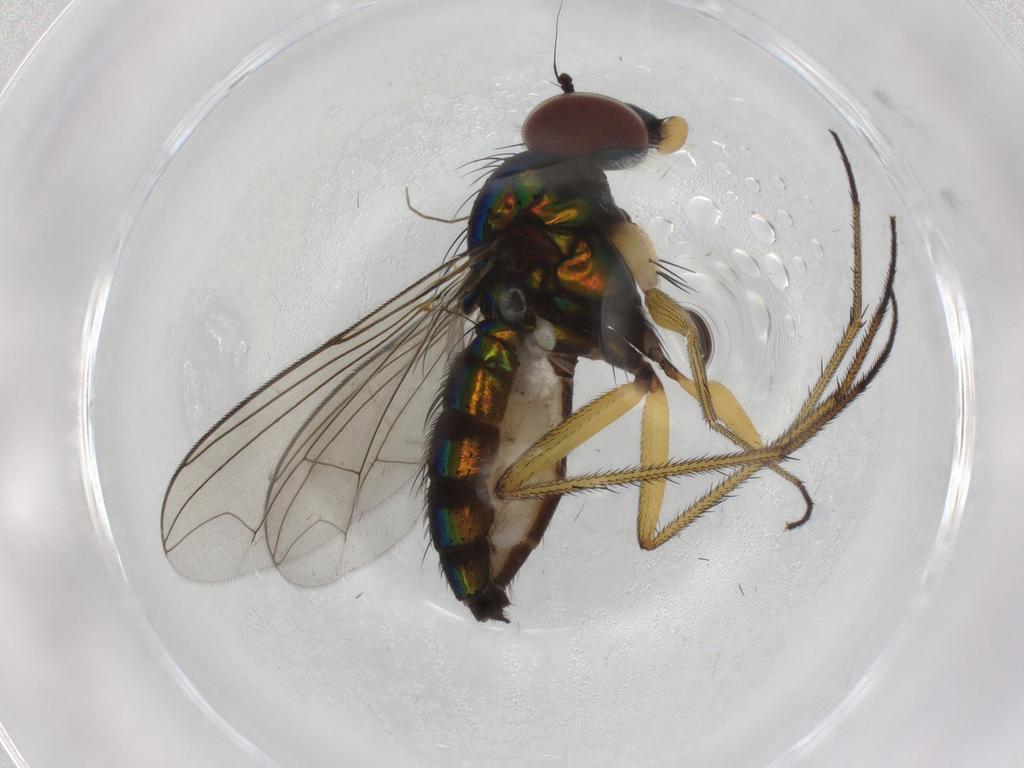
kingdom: Animalia
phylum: Arthropoda
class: Insecta
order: Diptera
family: Dolichopodidae
